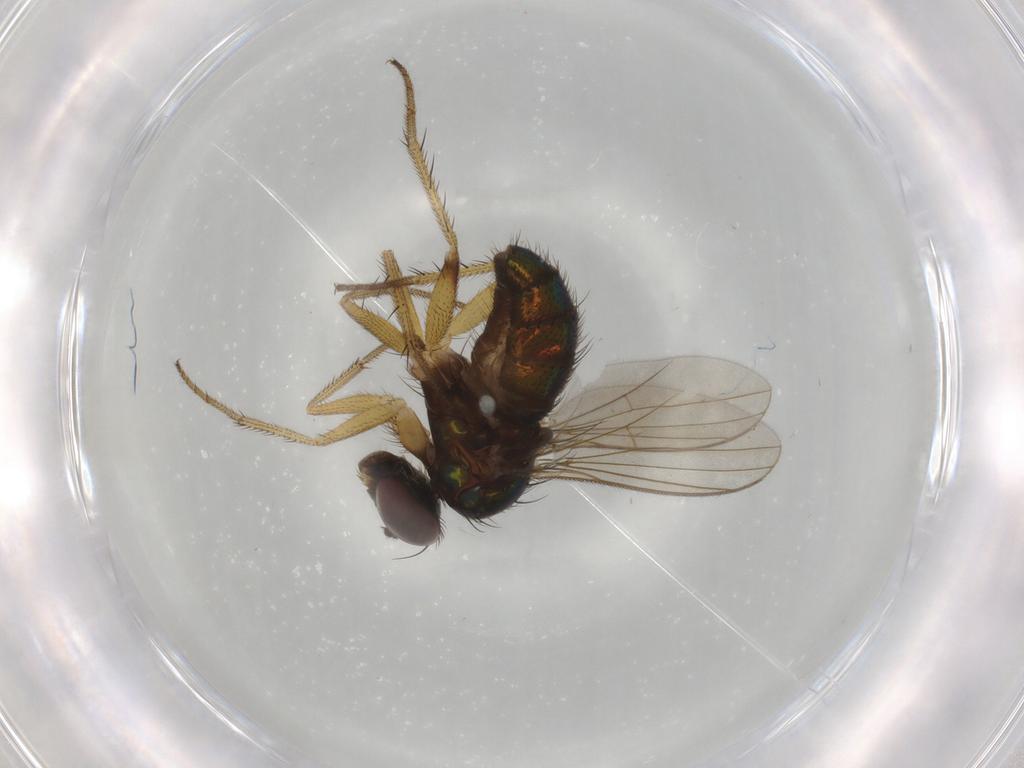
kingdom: Animalia
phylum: Arthropoda
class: Insecta
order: Diptera
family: Dolichopodidae
